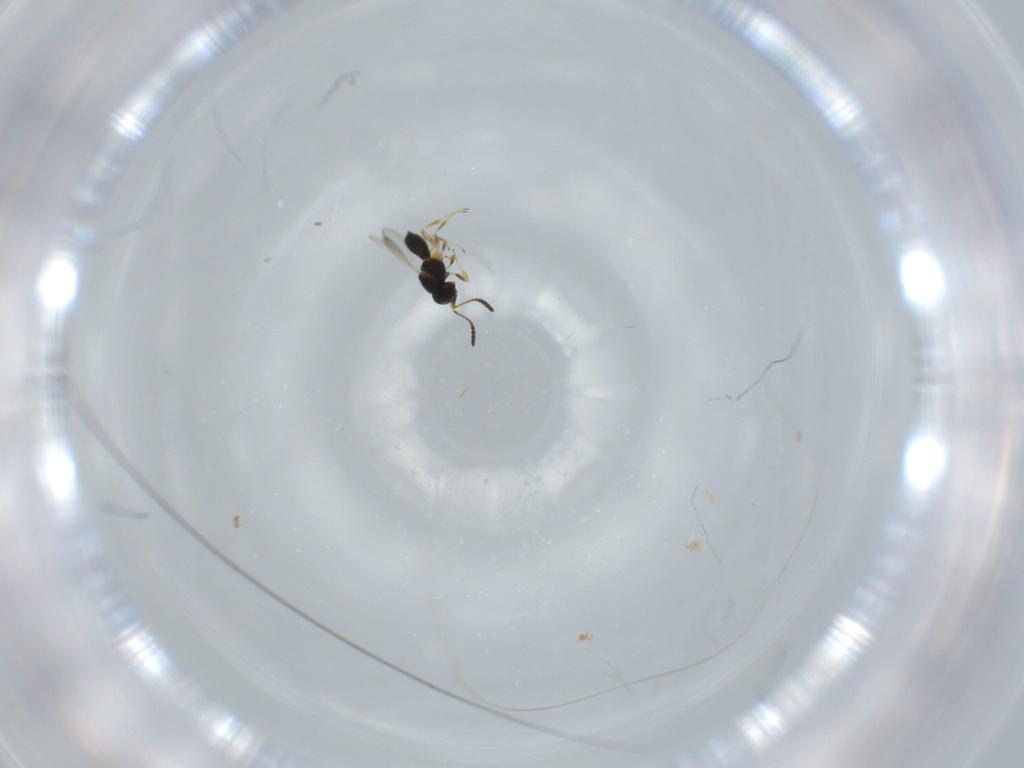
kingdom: Animalia
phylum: Arthropoda
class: Insecta
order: Hymenoptera
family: Scelionidae
